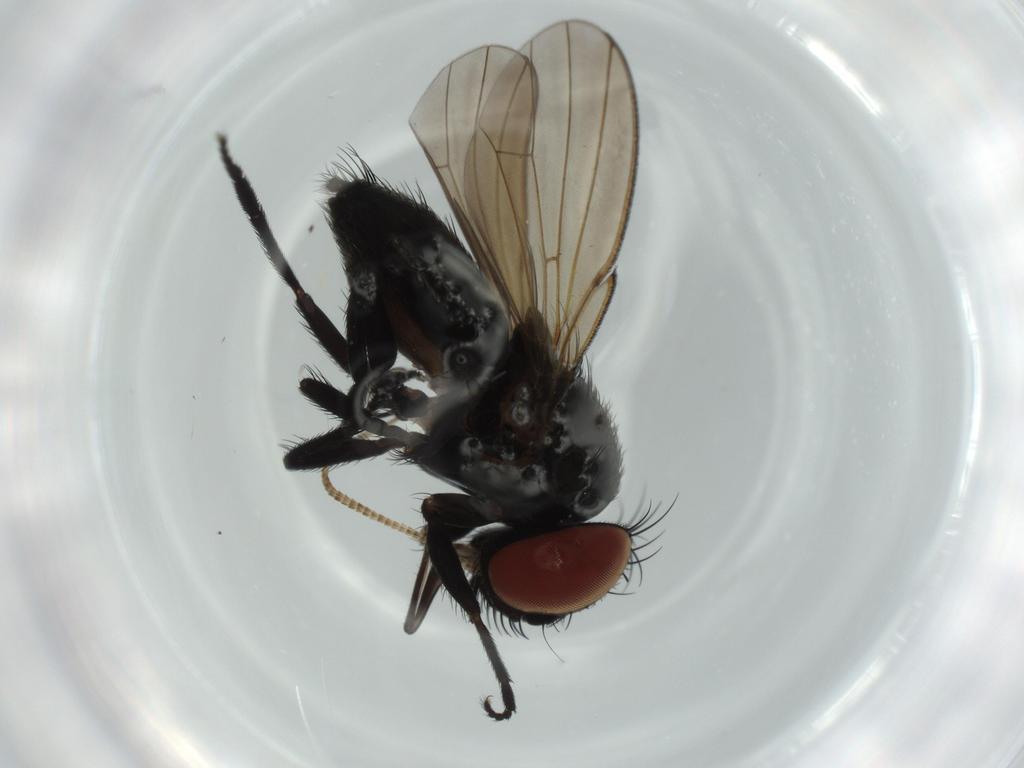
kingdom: Animalia
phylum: Arthropoda
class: Insecta
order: Diptera
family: Milichiidae
